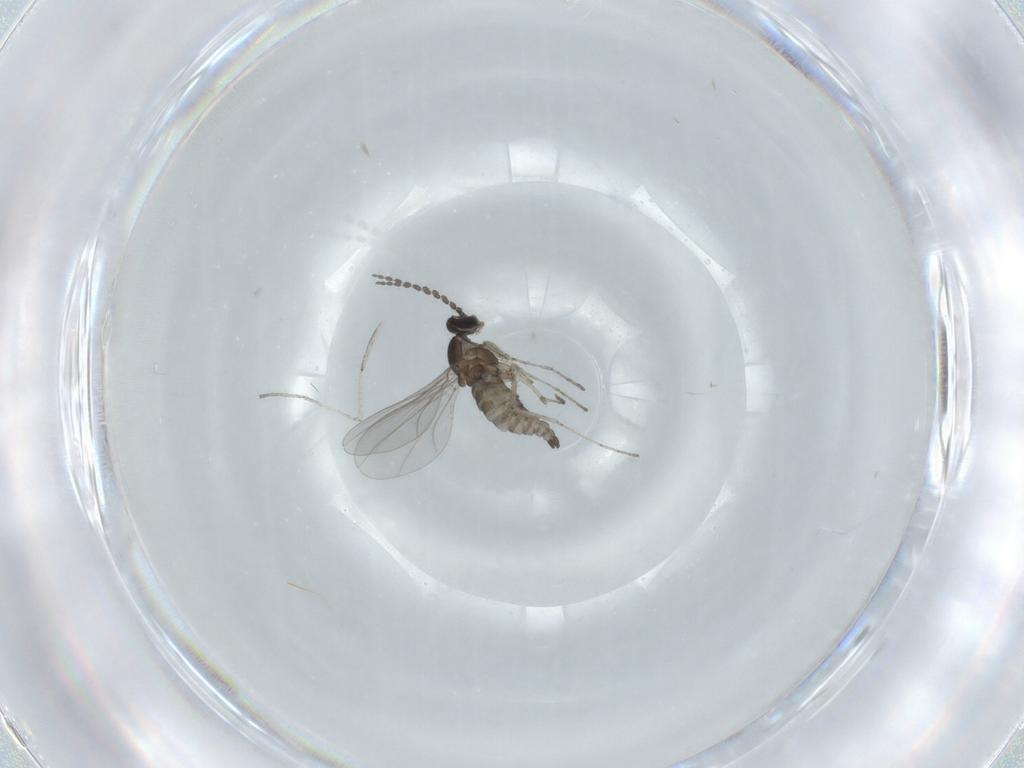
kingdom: Animalia
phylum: Arthropoda
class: Insecta
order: Diptera
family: Cecidomyiidae
